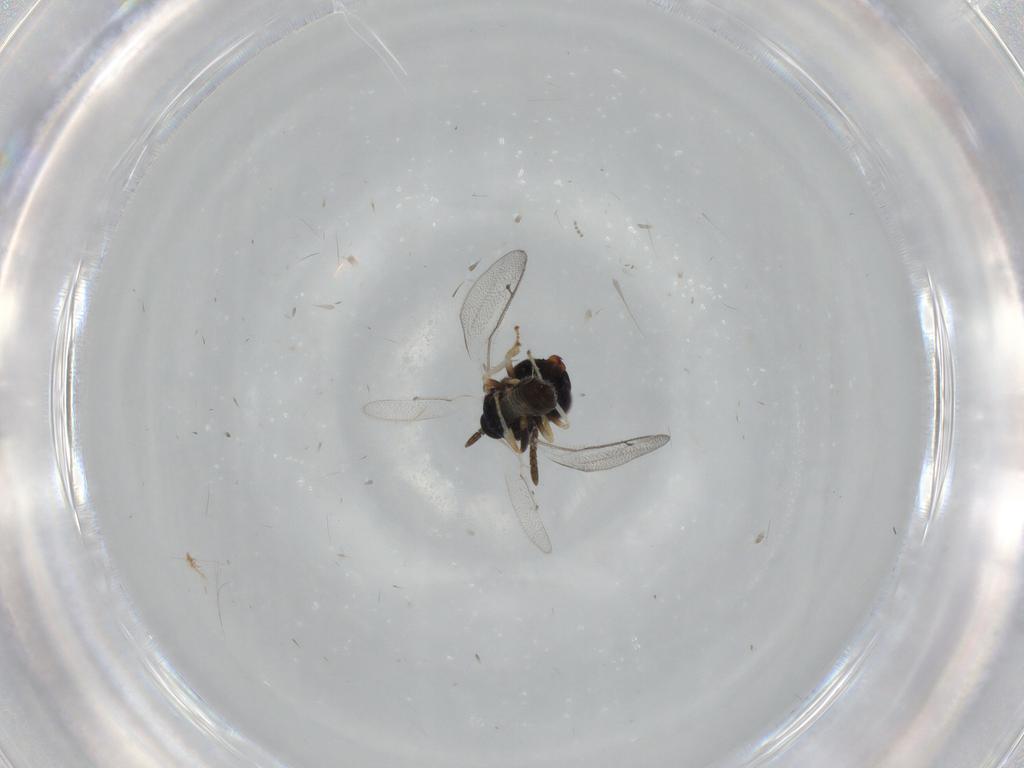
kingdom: Animalia
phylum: Arthropoda
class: Insecta
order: Hymenoptera
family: Pteromalidae
